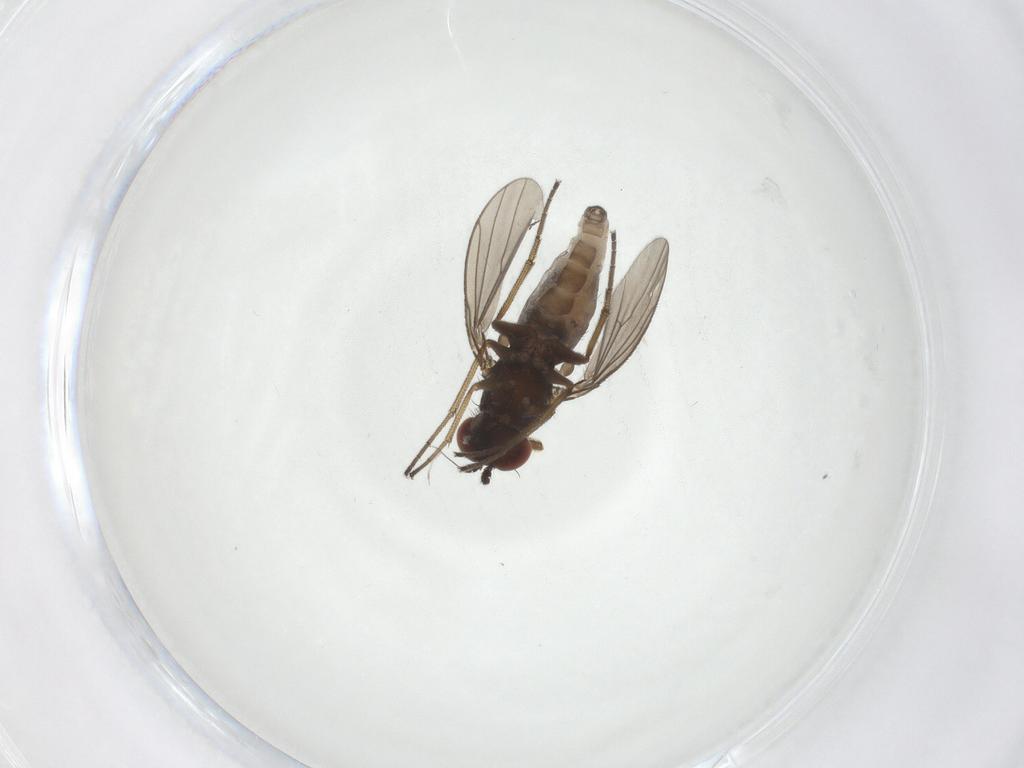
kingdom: Animalia
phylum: Arthropoda
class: Insecta
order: Diptera
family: Dolichopodidae
